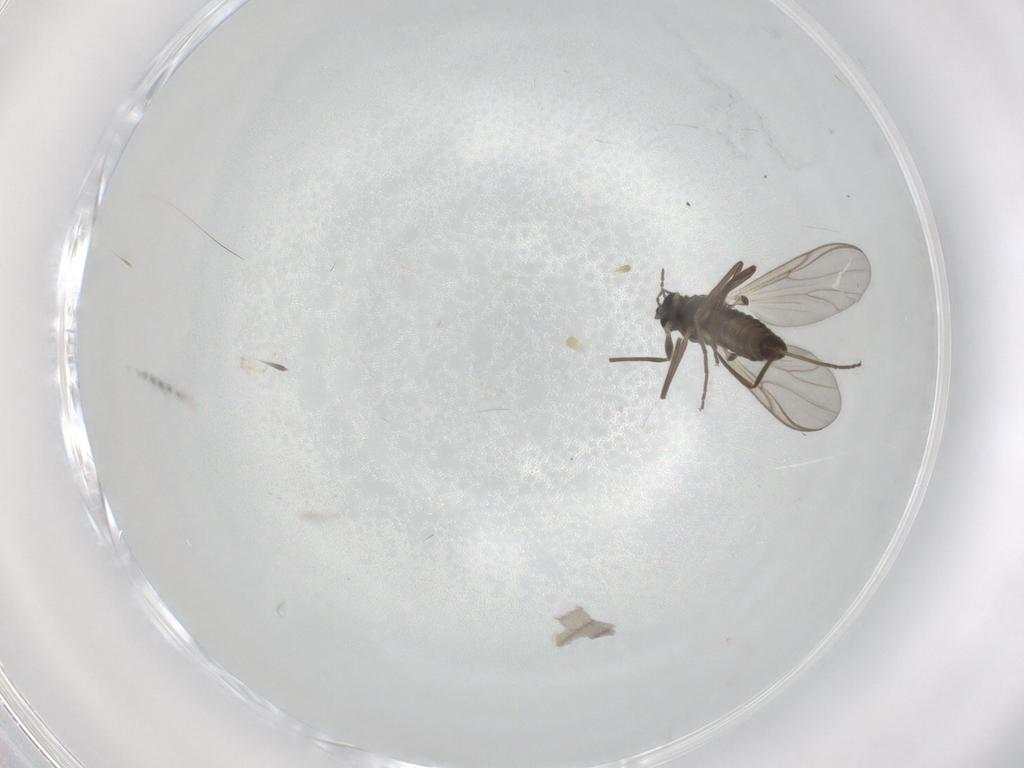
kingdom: Animalia
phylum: Arthropoda
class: Insecta
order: Diptera
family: Chironomidae
